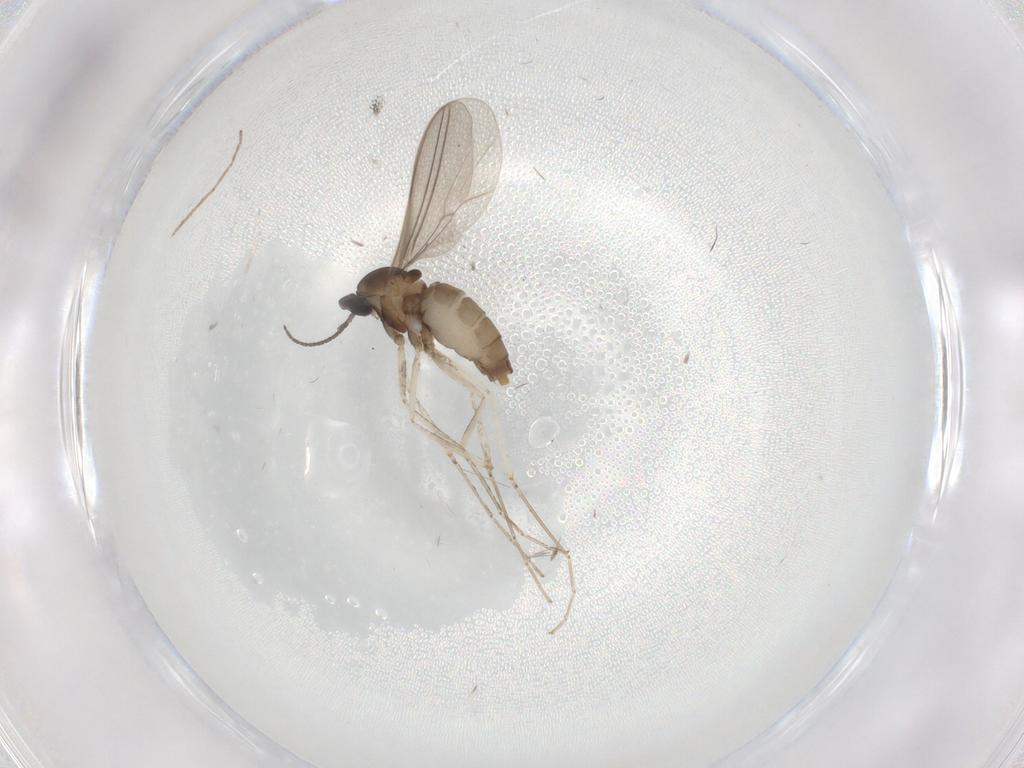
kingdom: Animalia
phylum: Arthropoda
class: Insecta
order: Diptera
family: Cecidomyiidae
